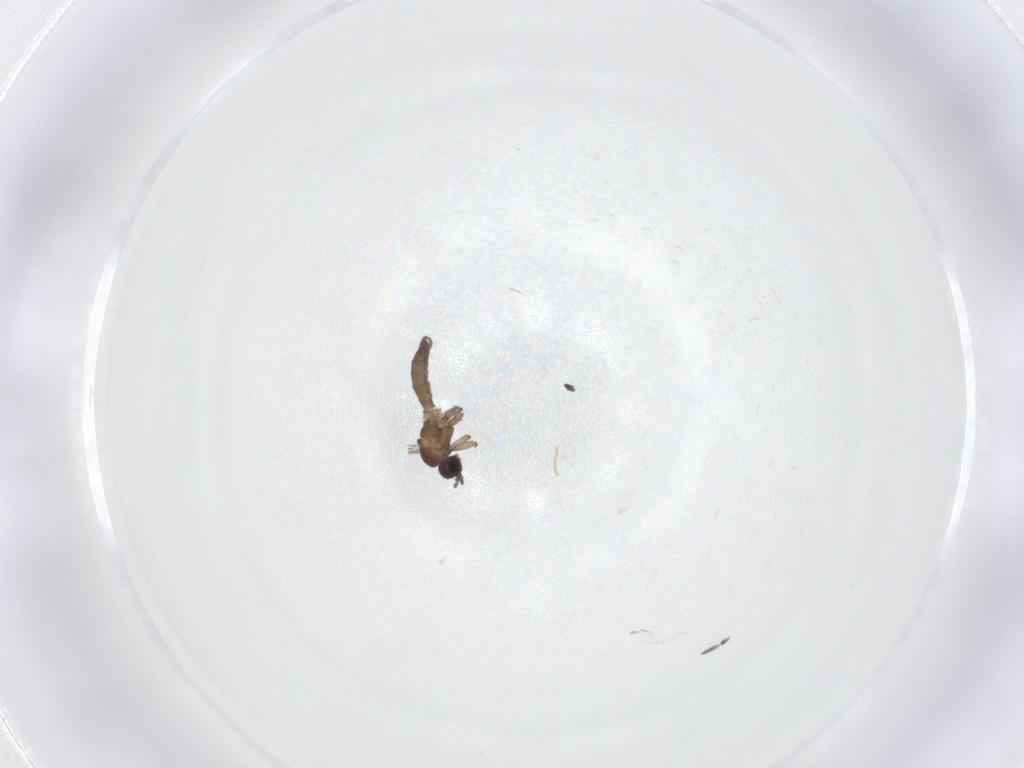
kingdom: Animalia
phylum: Arthropoda
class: Insecta
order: Diptera
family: Sciaridae
